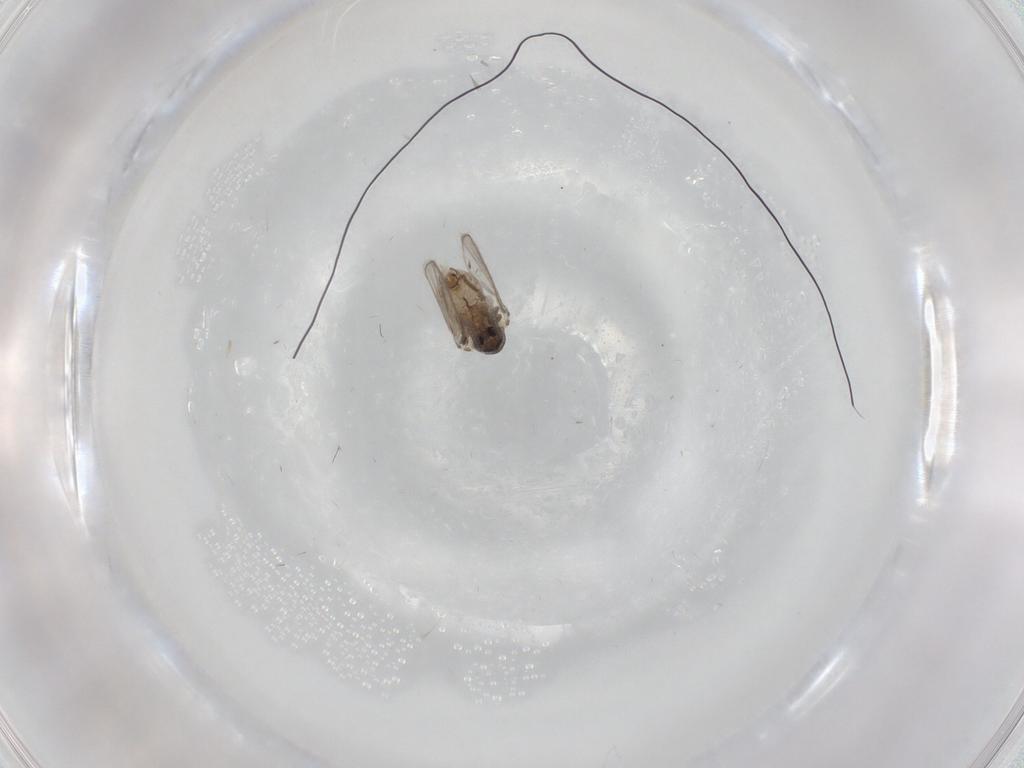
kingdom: Animalia
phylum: Arthropoda
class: Insecta
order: Diptera
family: Psychodidae
